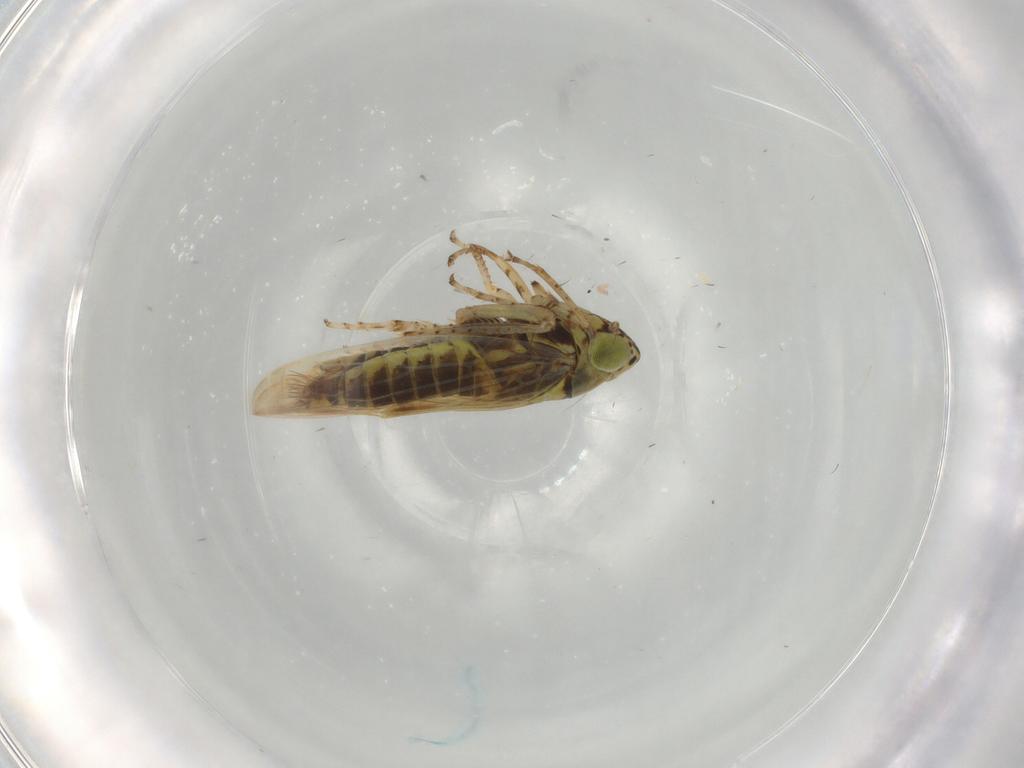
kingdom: Animalia
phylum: Arthropoda
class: Insecta
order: Hemiptera
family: Cicadellidae
